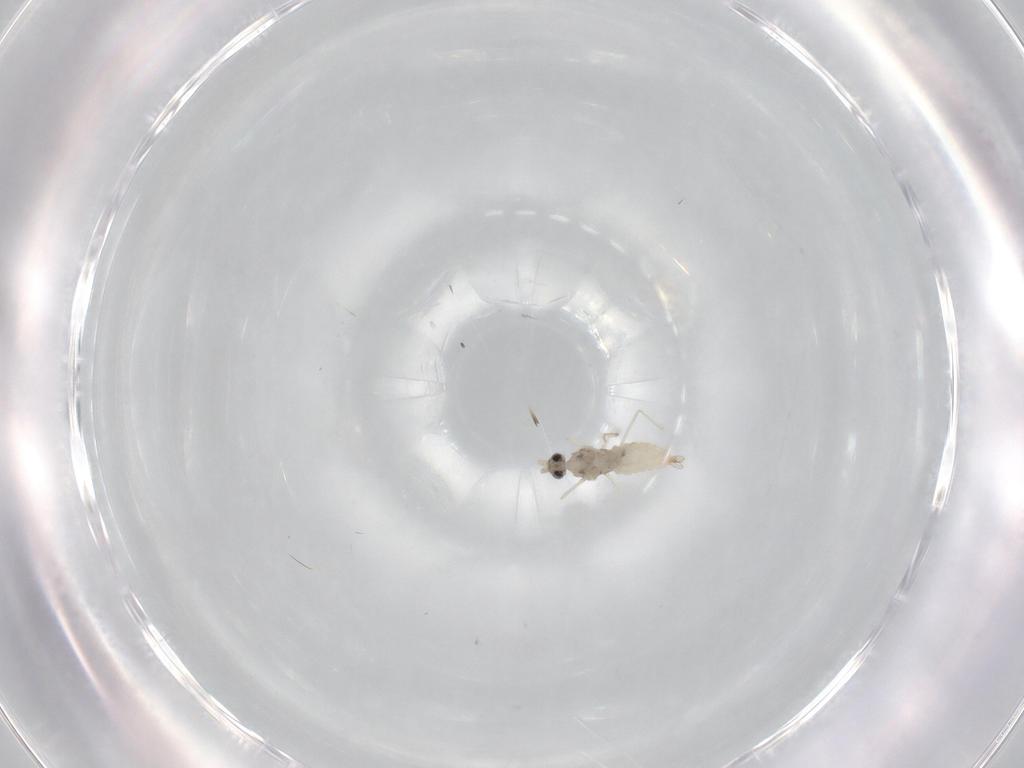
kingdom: Animalia
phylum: Arthropoda
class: Insecta
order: Diptera
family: Cecidomyiidae
